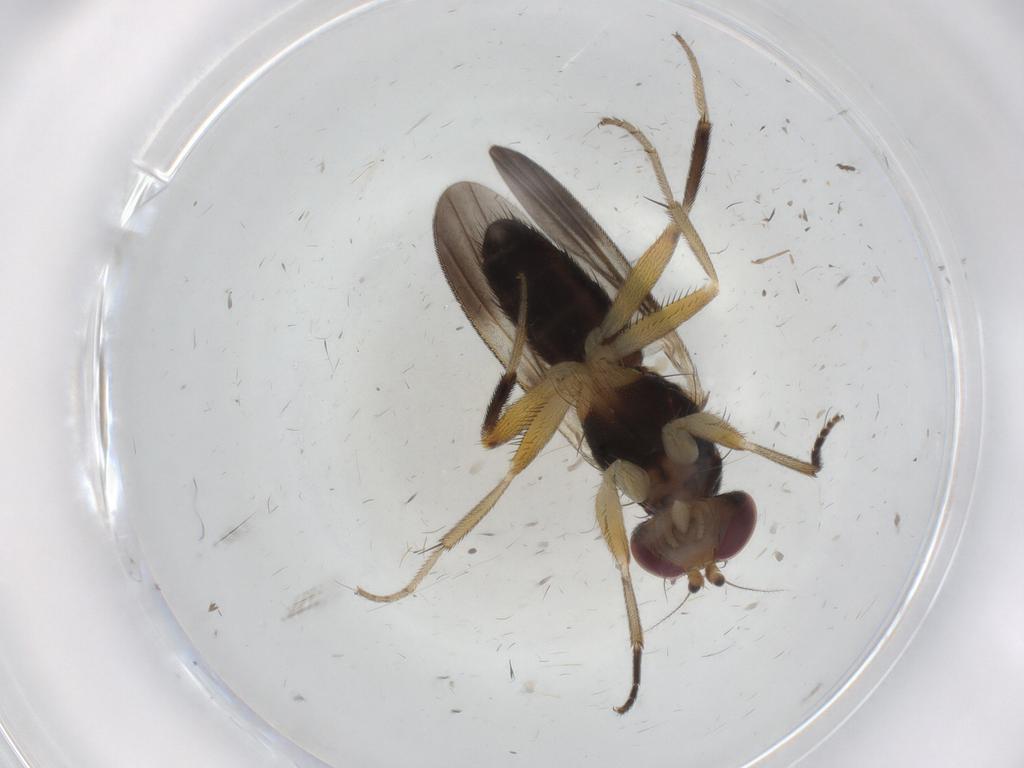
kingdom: Animalia
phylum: Arthropoda
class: Insecta
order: Diptera
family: Clusiidae
